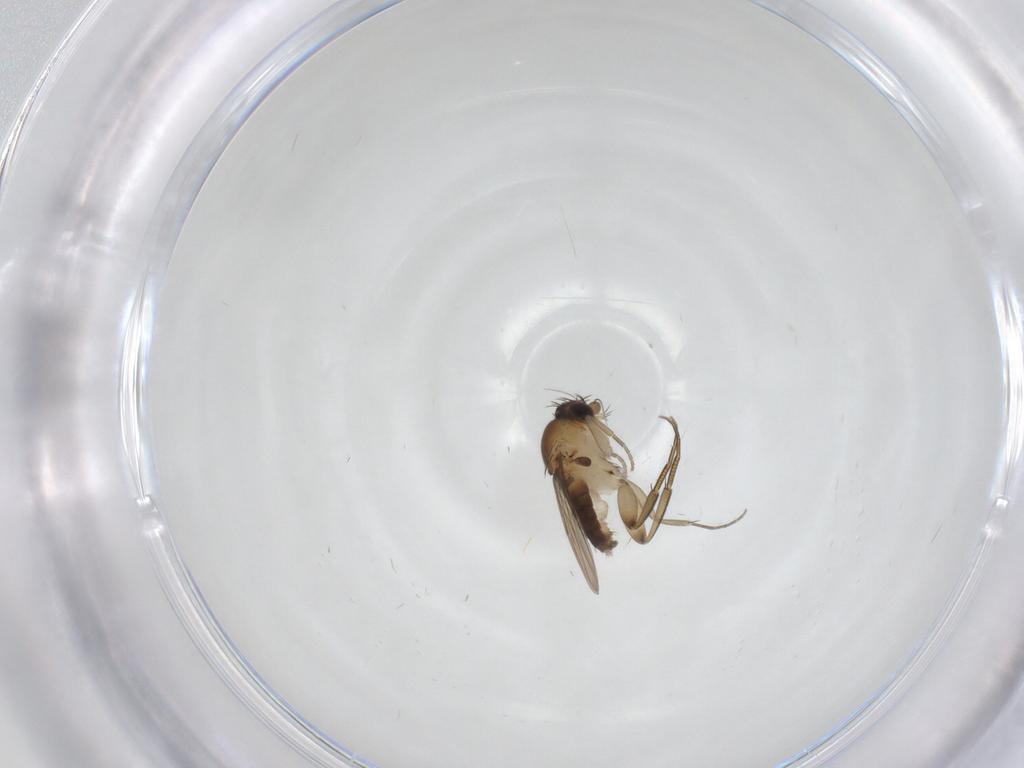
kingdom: Animalia
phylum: Arthropoda
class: Insecta
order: Diptera
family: Phoridae
